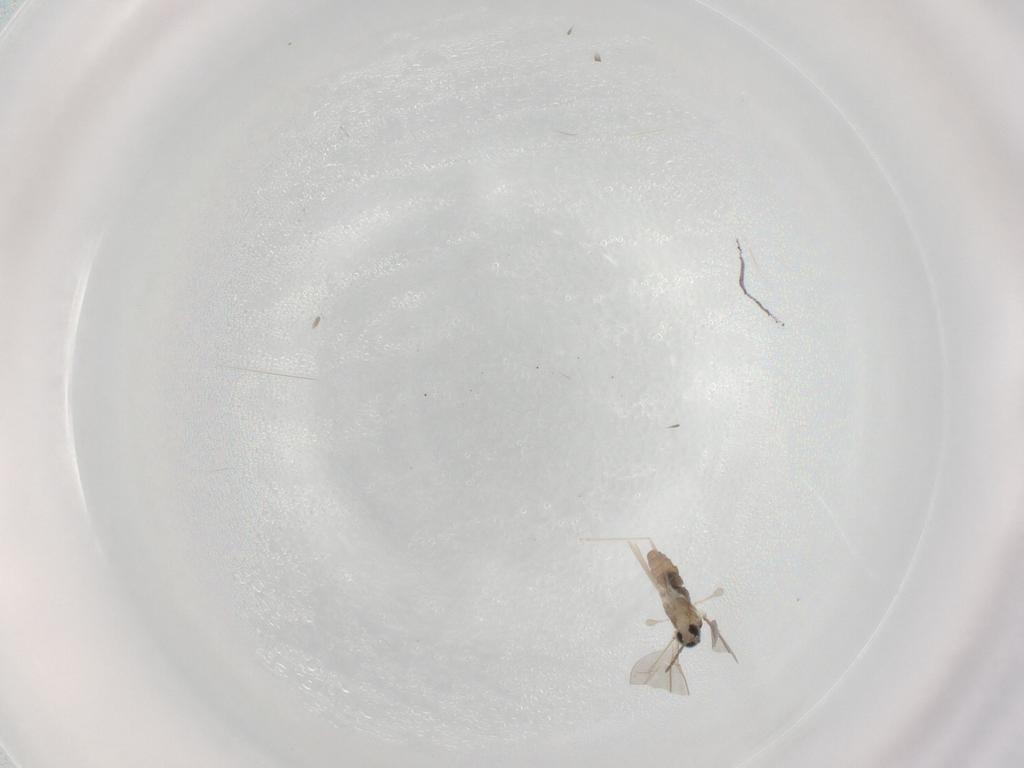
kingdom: Animalia
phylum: Arthropoda
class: Insecta
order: Diptera
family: Cecidomyiidae
